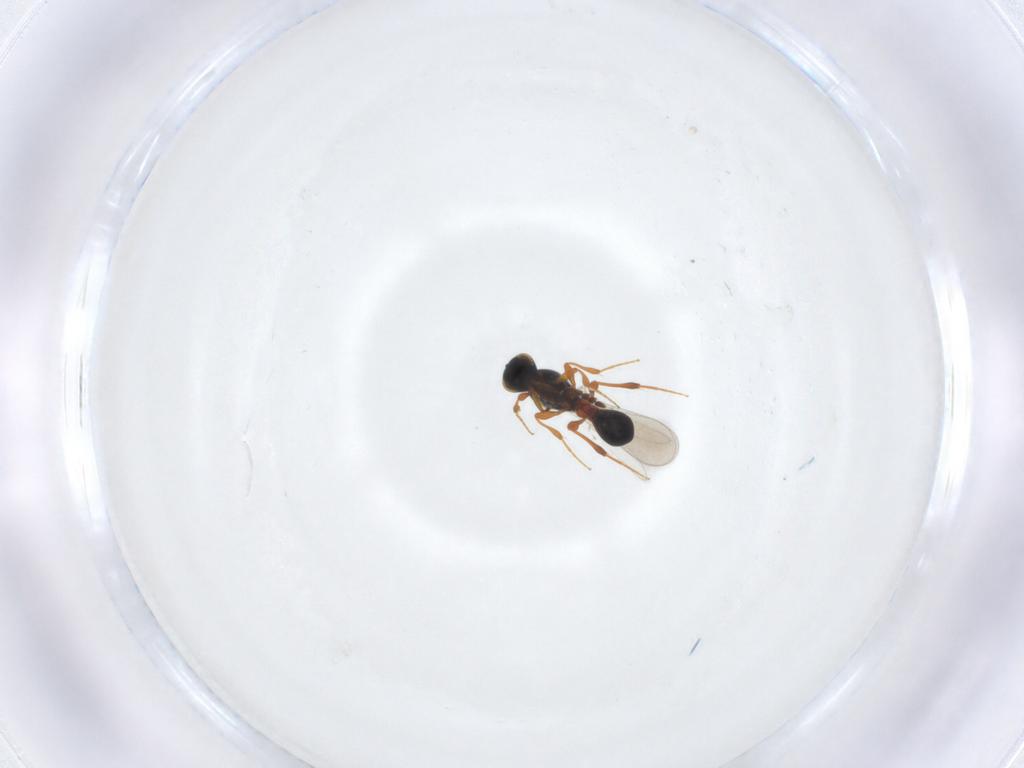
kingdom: Animalia
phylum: Arthropoda
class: Insecta
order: Hymenoptera
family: Platygastridae
